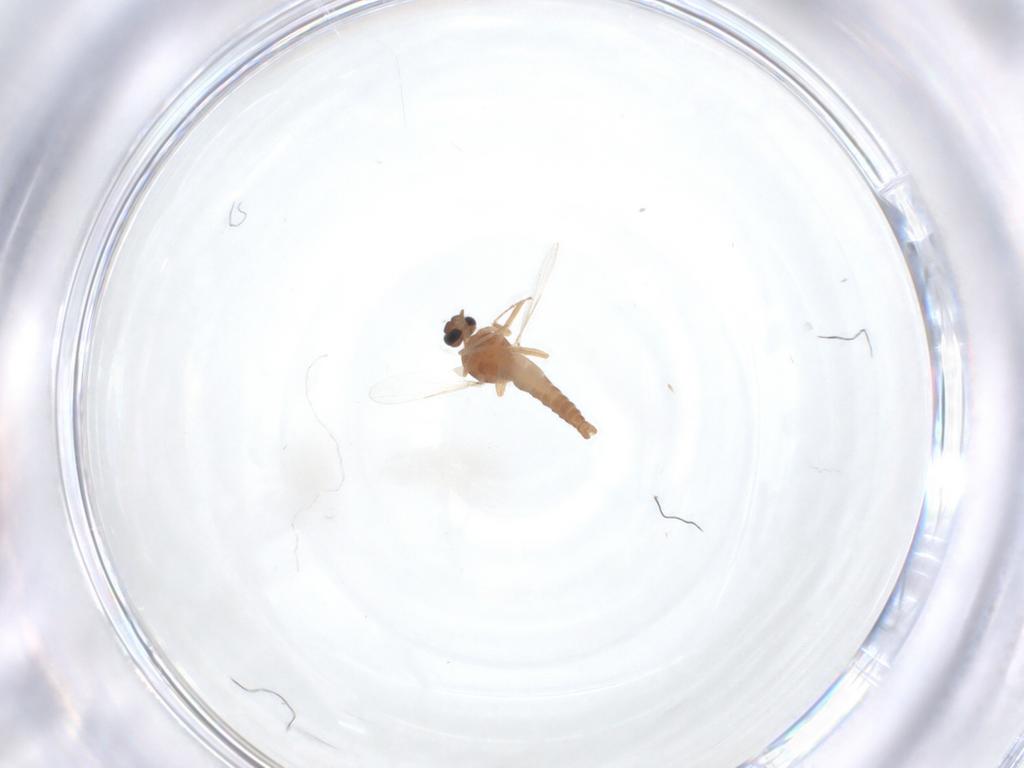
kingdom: Animalia
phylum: Arthropoda
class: Insecta
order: Diptera
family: Ceratopogonidae
